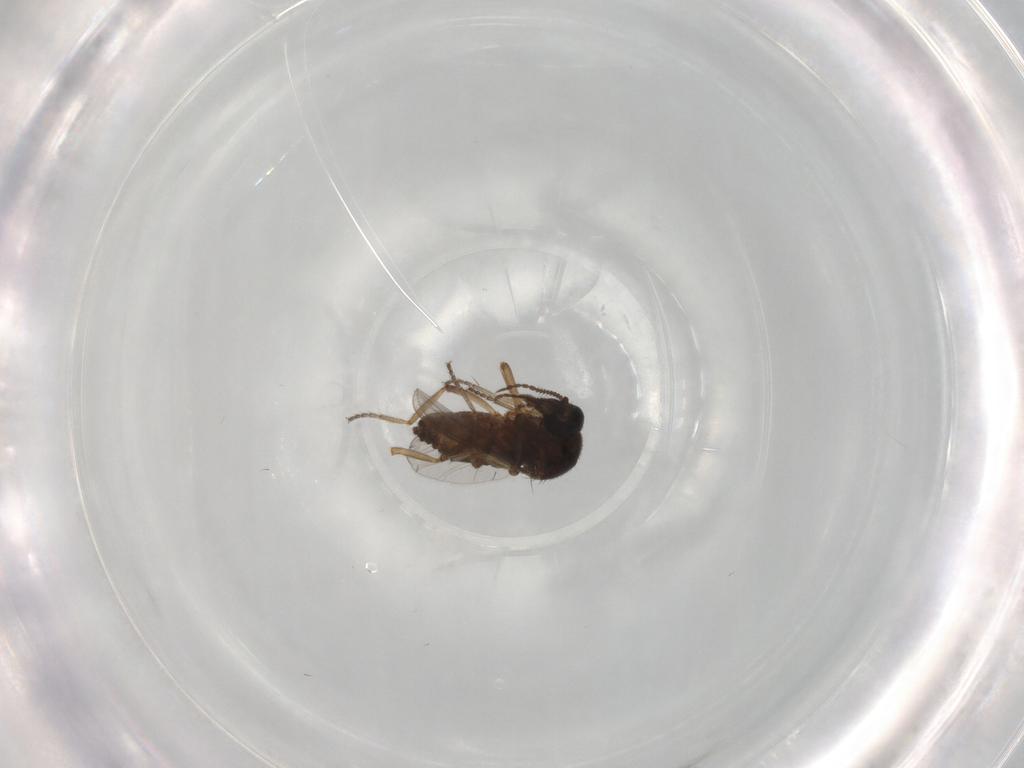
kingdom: Animalia
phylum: Arthropoda
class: Insecta
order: Diptera
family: Ceratopogonidae
